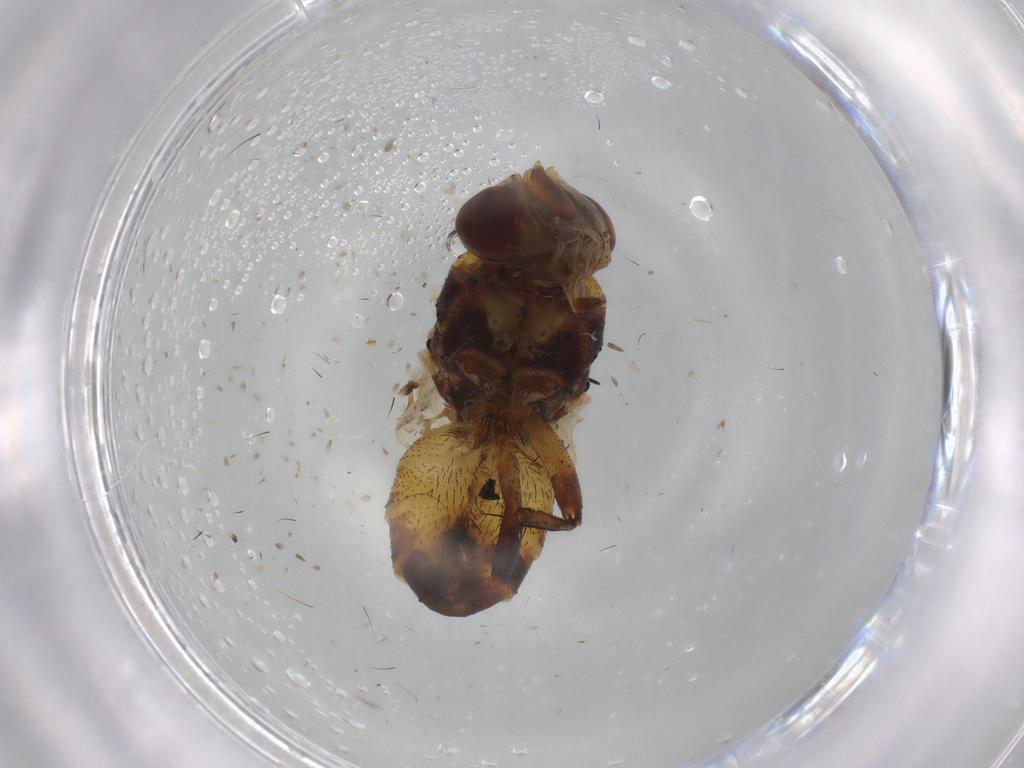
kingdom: Animalia
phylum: Arthropoda
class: Insecta
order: Diptera
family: Glossinidae
